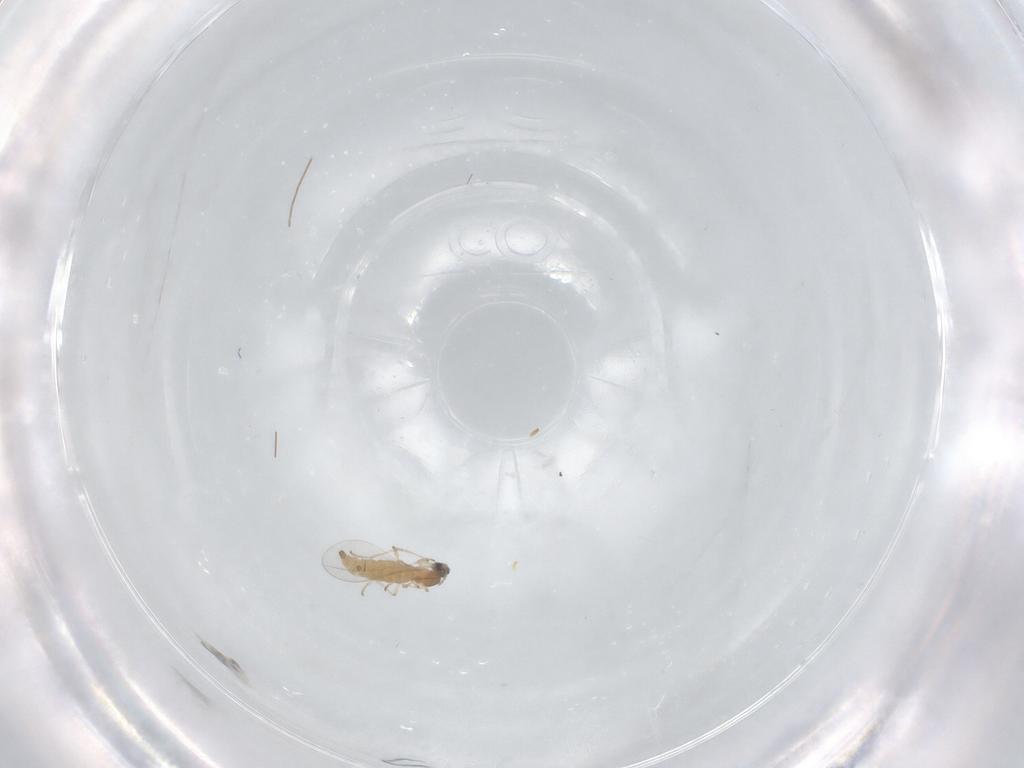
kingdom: Animalia
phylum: Arthropoda
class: Insecta
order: Diptera
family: Cecidomyiidae
